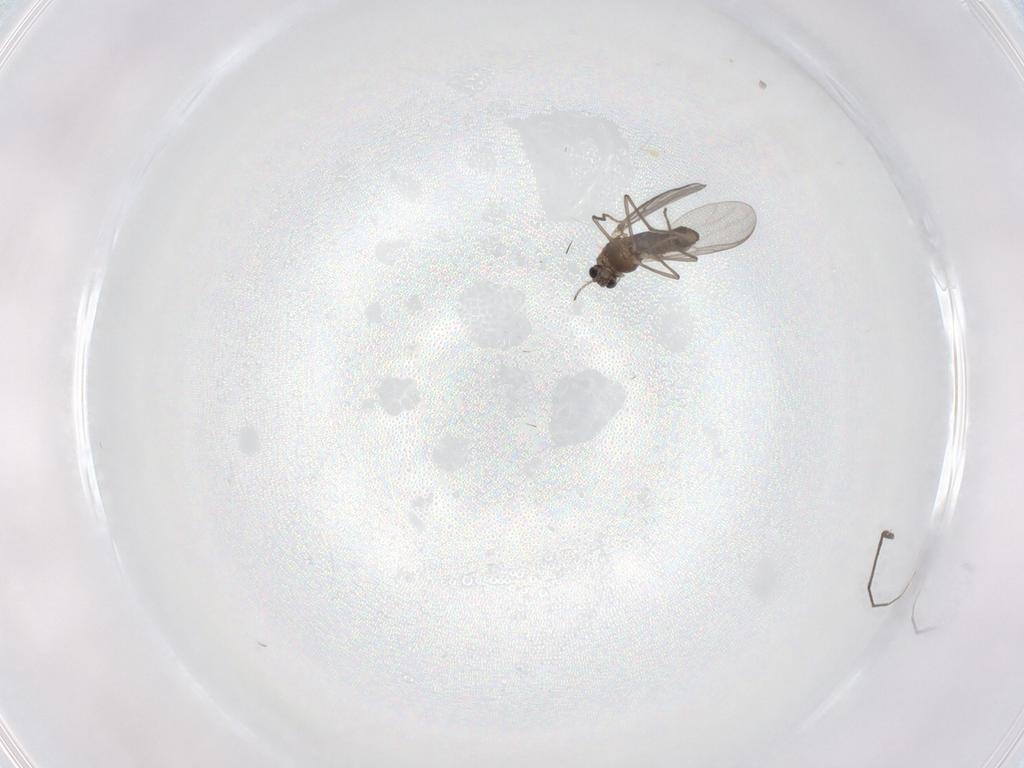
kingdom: Animalia
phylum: Arthropoda
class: Insecta
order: Diptera
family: Chironomidae
